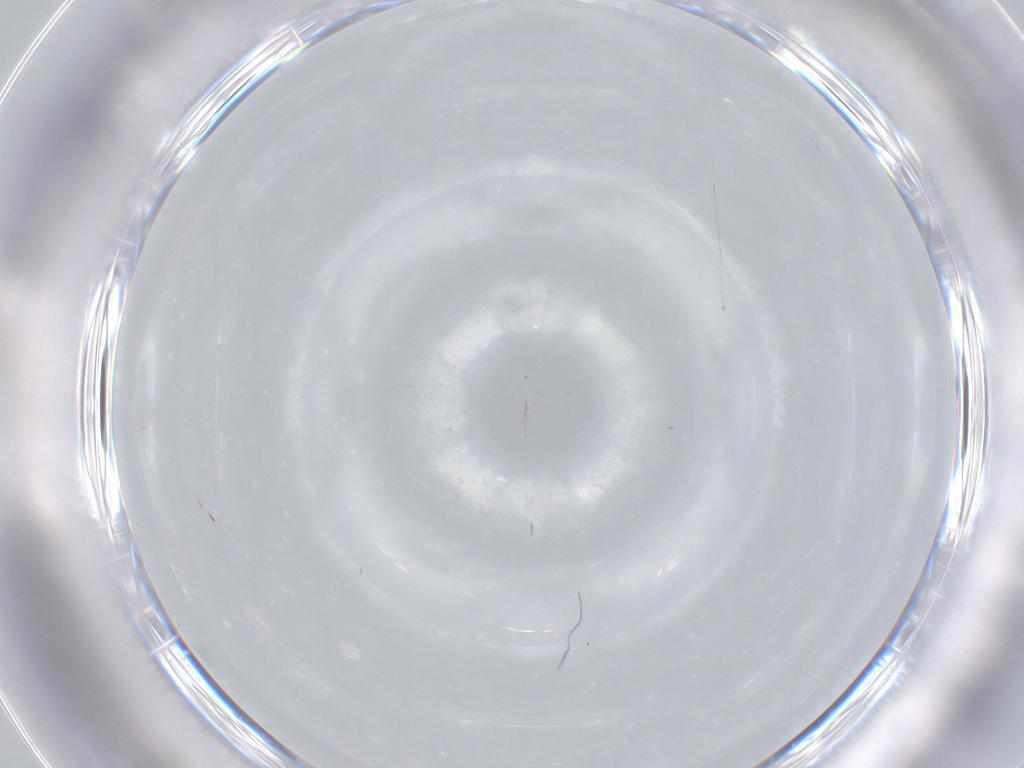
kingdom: Animalia
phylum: Arthropoda
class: Insecta
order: Diptera
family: Cecidomyiidae
